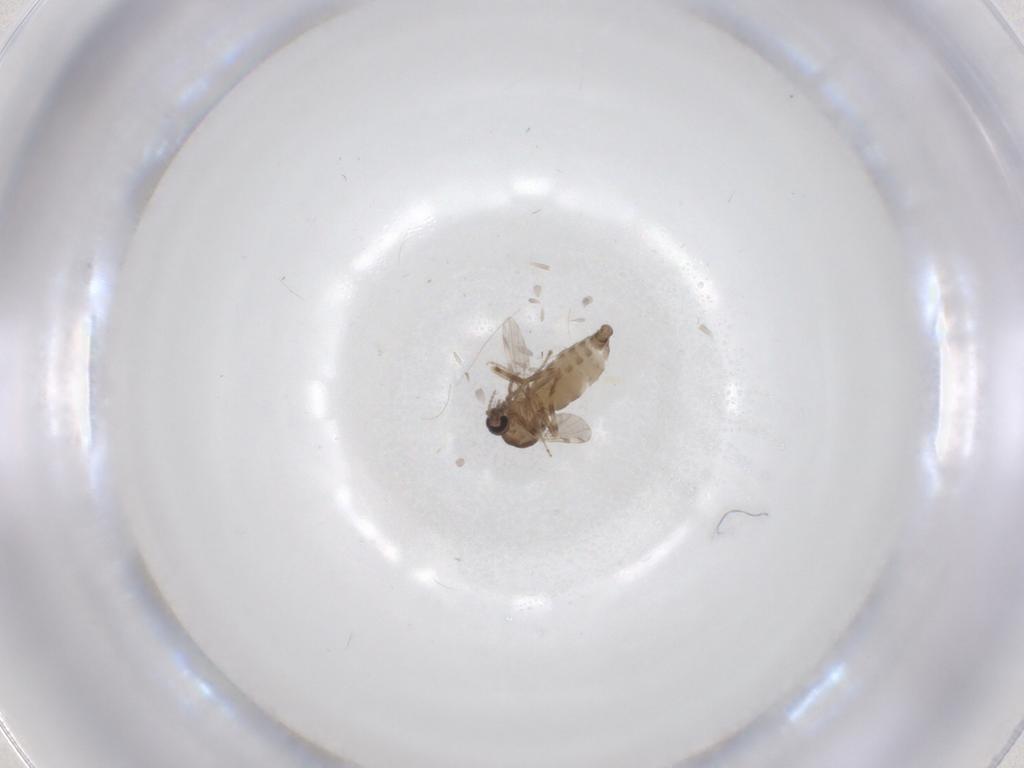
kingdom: Animalia
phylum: Arthropoda
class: Insecta
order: Diptera
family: Ceratopogonidae
